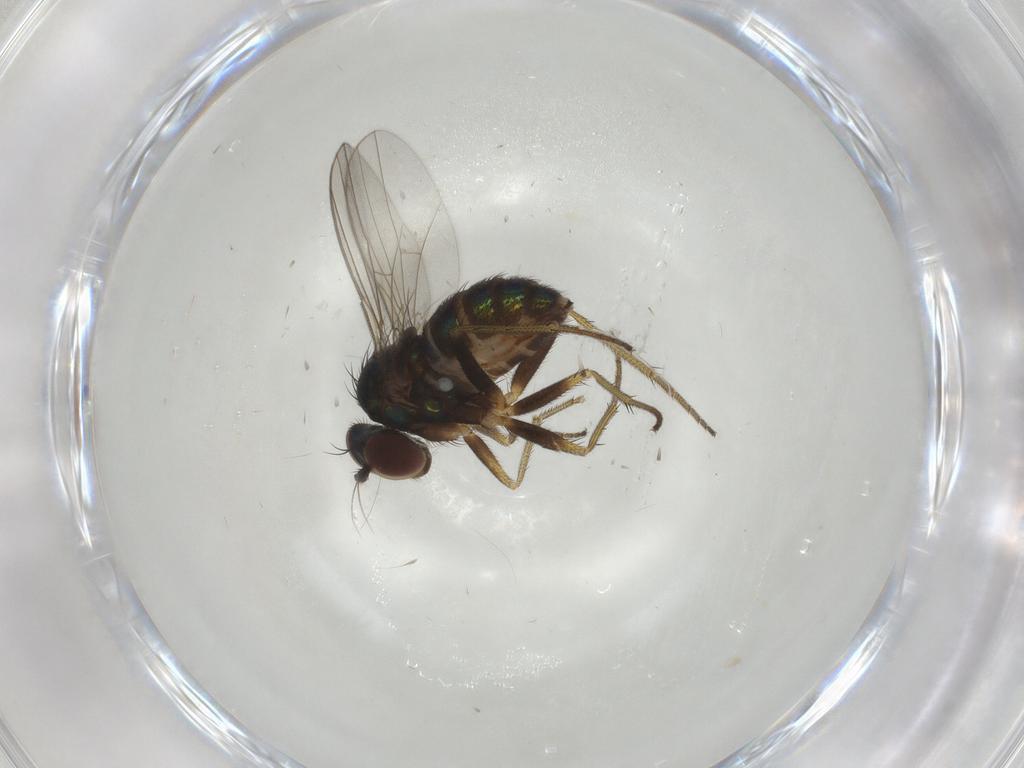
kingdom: Animalia
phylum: Arthropoda
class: Insecta
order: Diptera
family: Dolichopodidae
